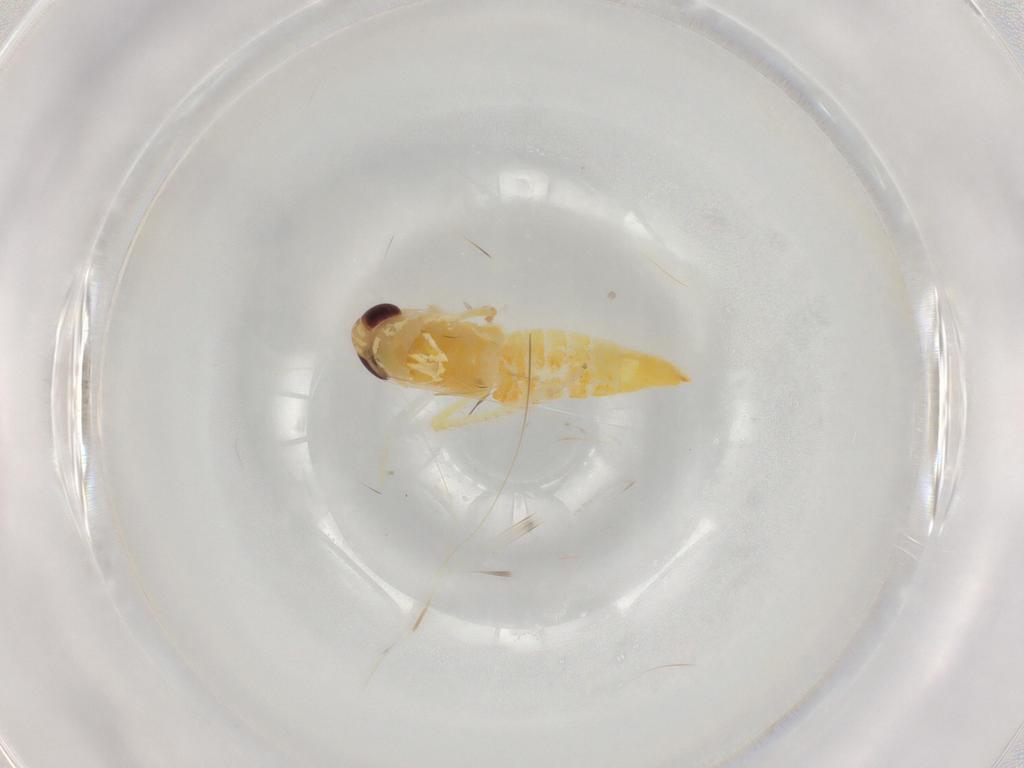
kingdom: Animalia
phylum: Arthropoda
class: Insecta
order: Hemiptera
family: Cicadellidae
